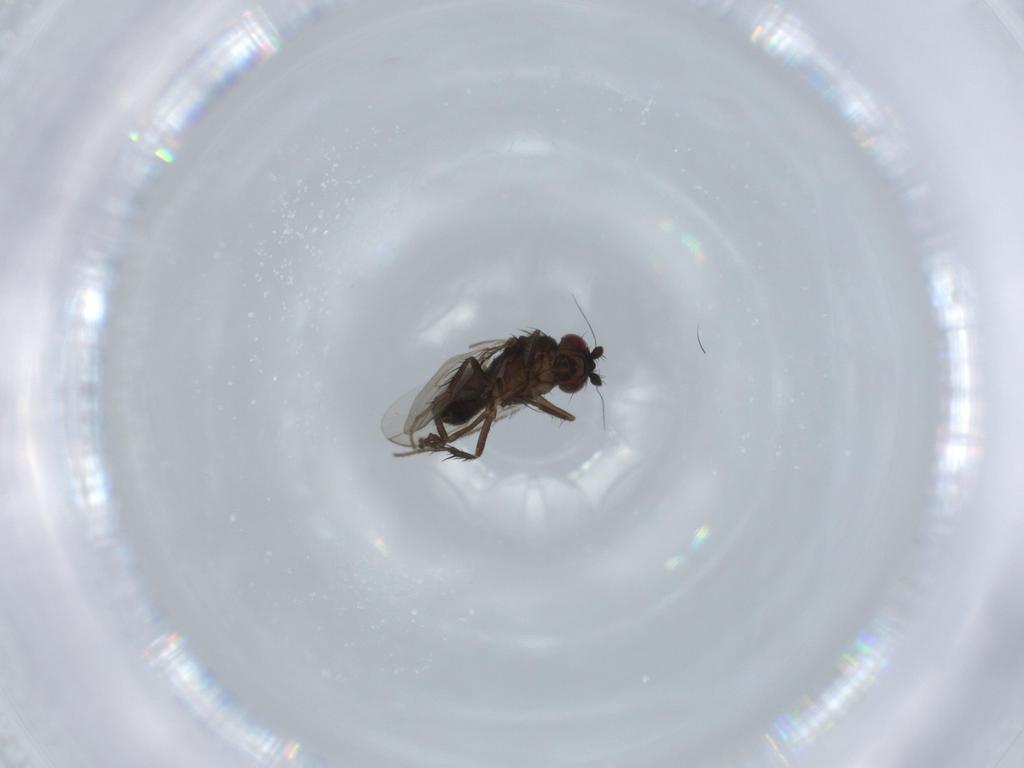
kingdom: Animalia
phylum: Arthropoda
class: Insecta
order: Diptera
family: Sphaeroceridae
